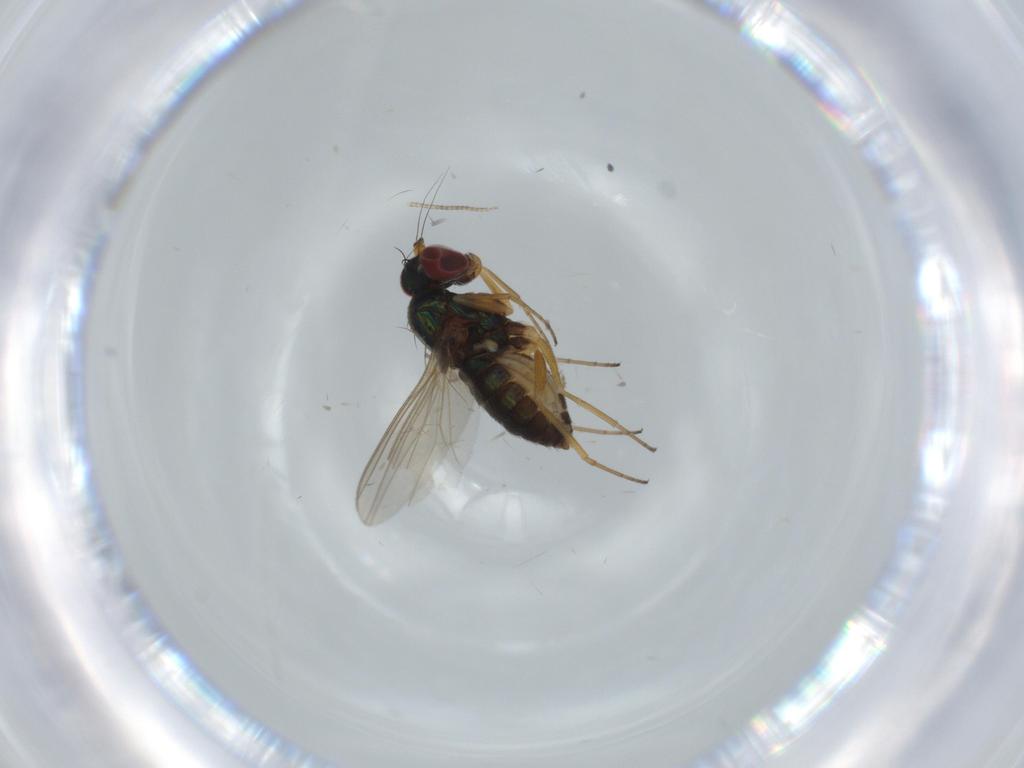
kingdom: Animalia
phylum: Arthropoda
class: Insecta
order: Diptera
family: Dolichopodidae
